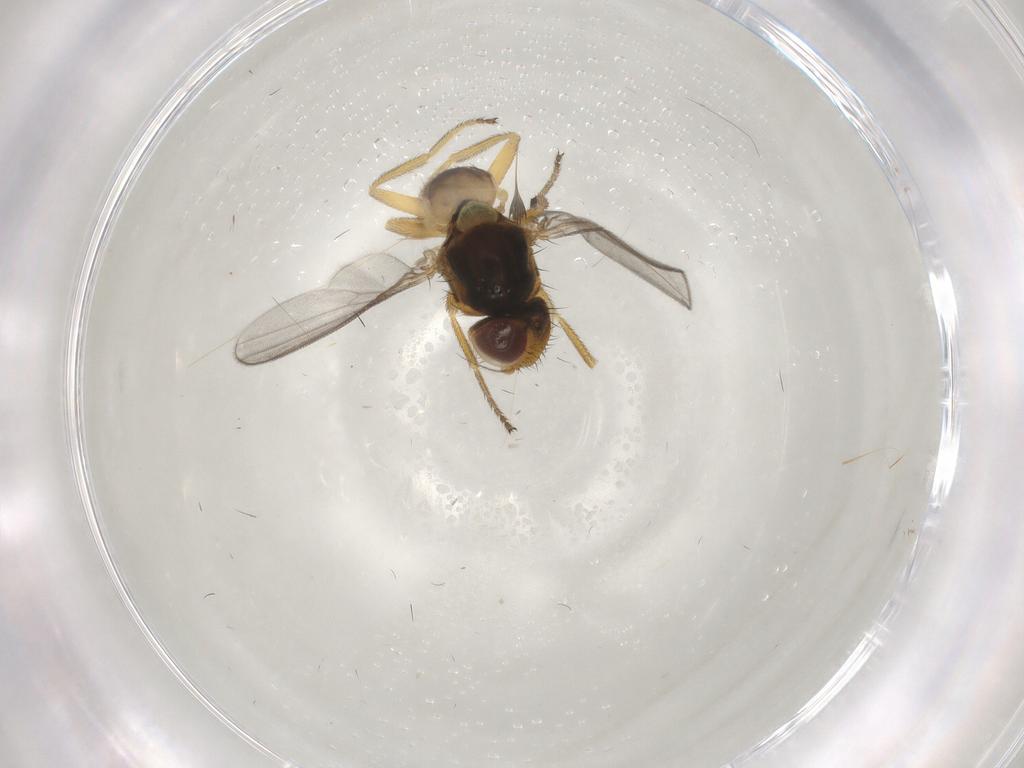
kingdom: Animalia
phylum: Arthropoda
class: Insecta
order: Diptera
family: Chloropidae
